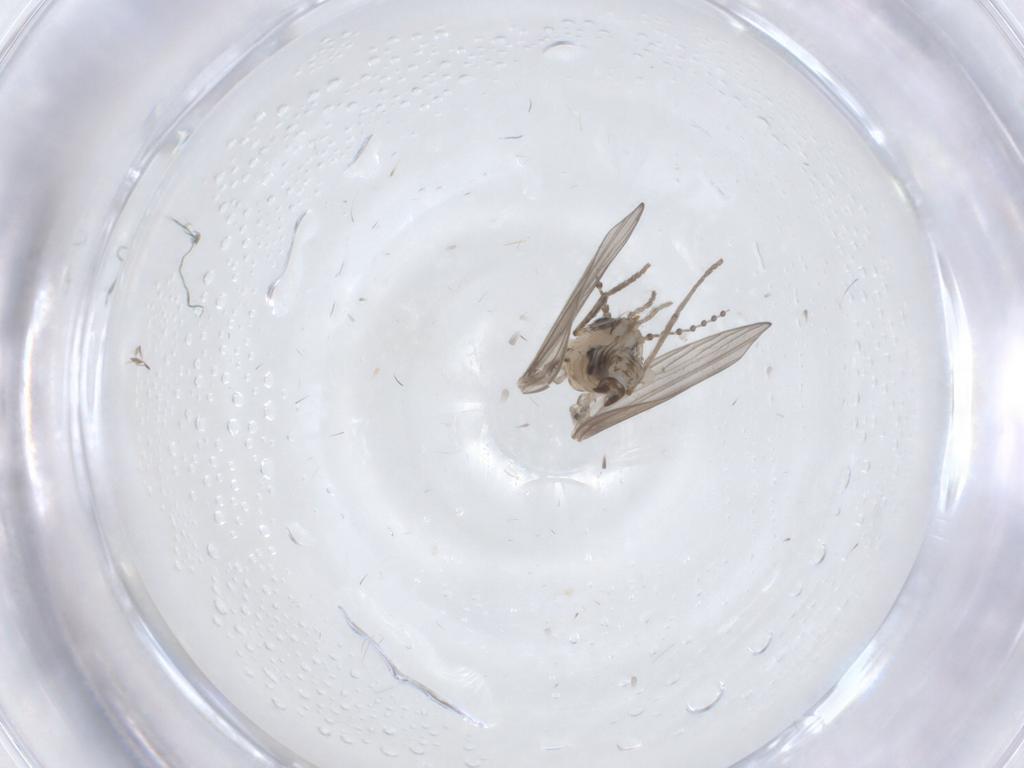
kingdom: Animalia
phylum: Arthropoda
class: Insecta
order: Diptera
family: Psychodidae
